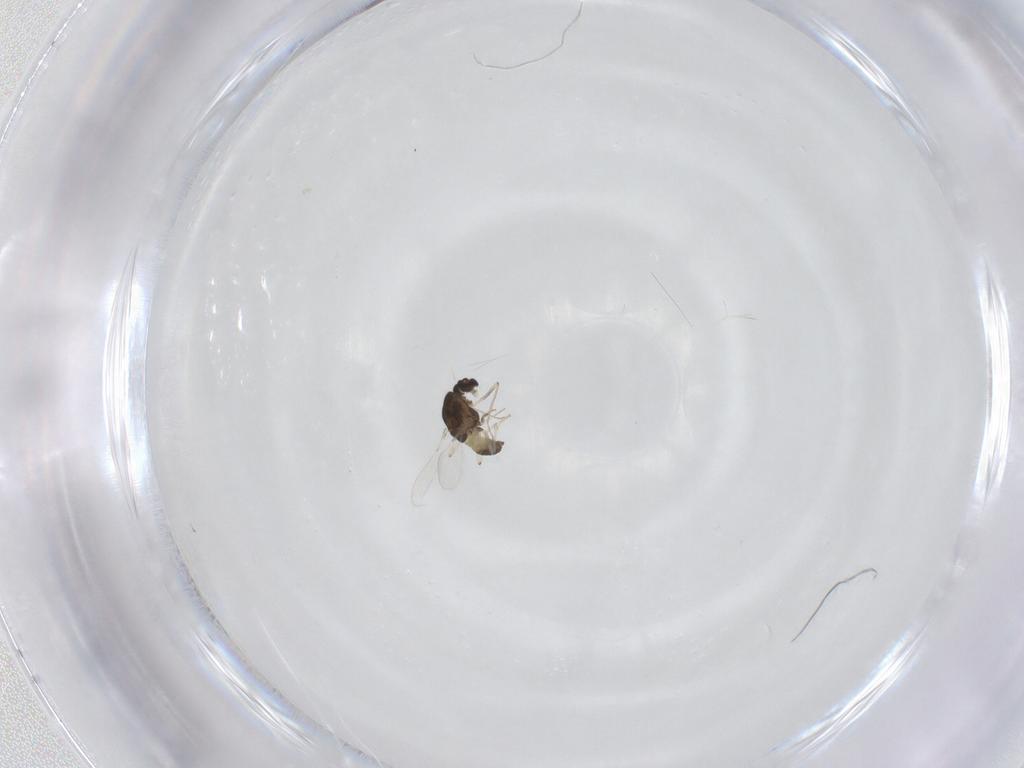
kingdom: Animalia
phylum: Arthropoda
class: Insecta
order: Diptera
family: Chironomidae
